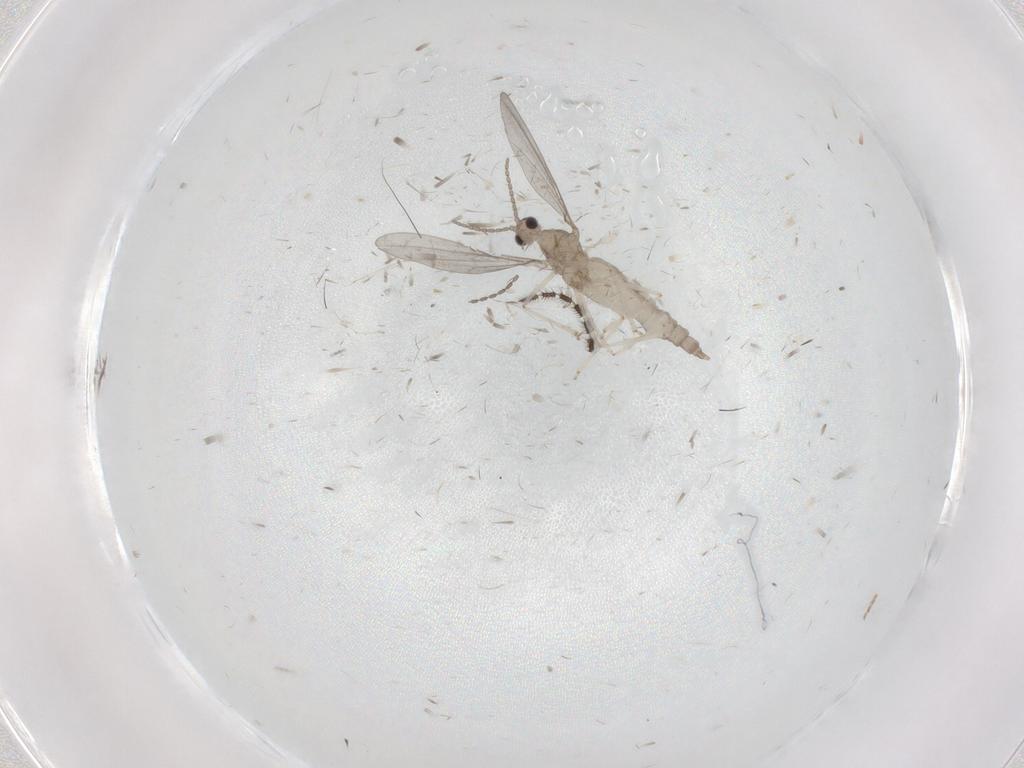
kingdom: Animalia
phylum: Arthropoda
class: Insecta
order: Diptera
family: Cecidomyiidae
